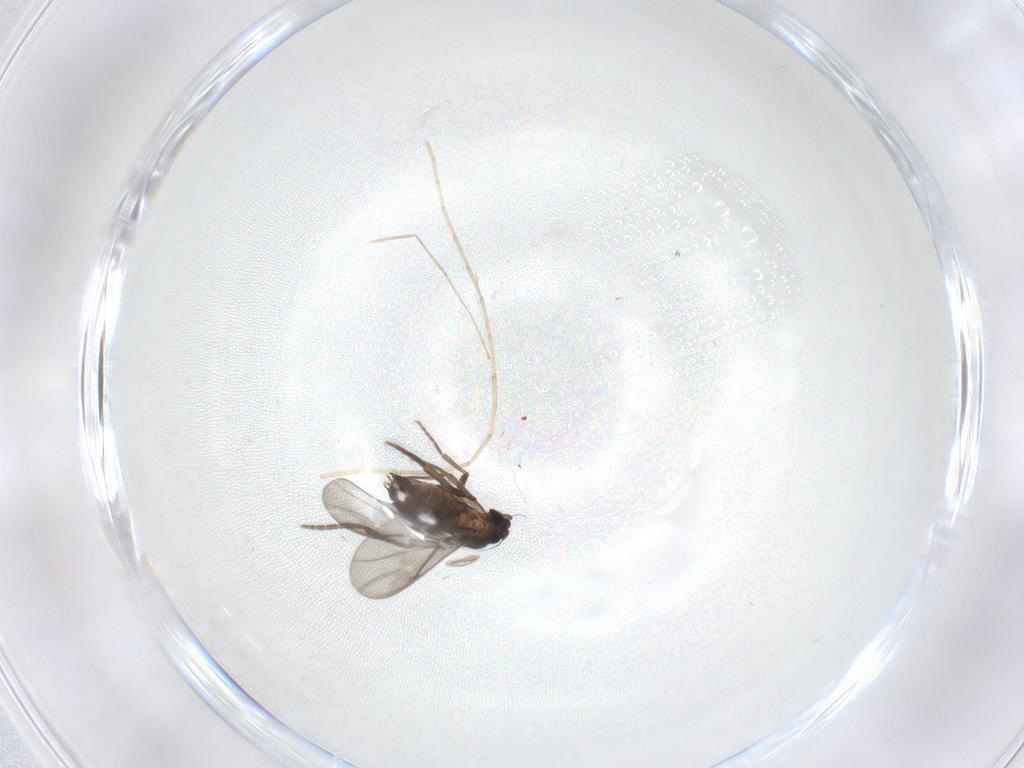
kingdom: Animalia
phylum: Arthropoda
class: Insecta
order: Diptera
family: Phoridae
